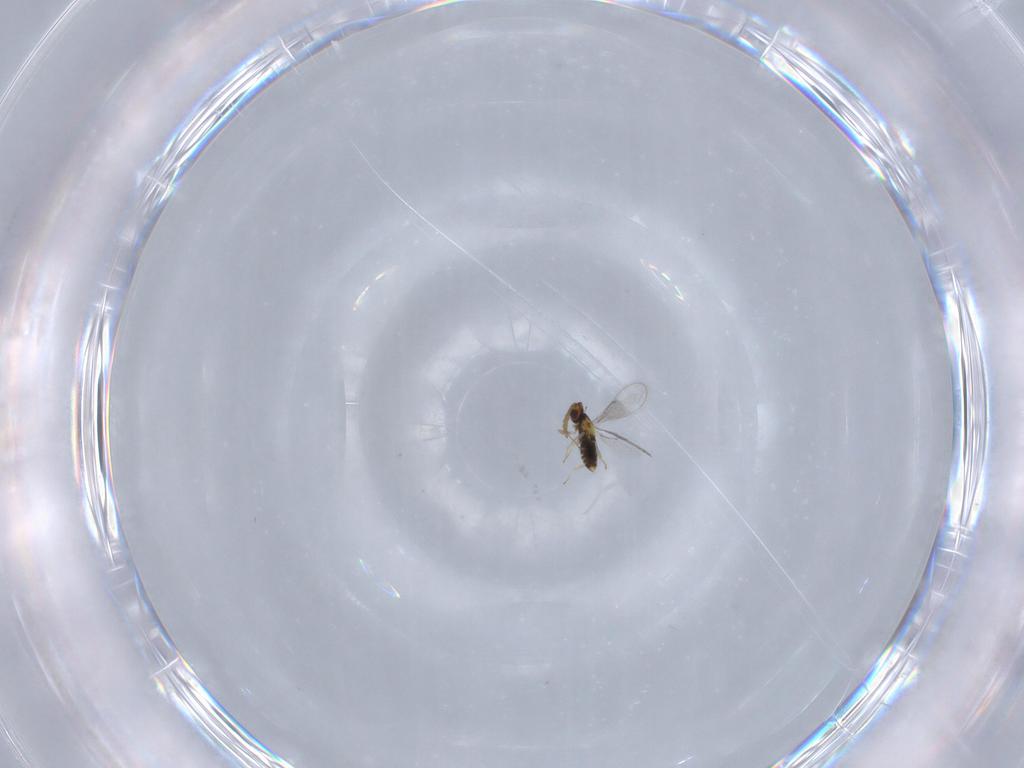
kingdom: Animalia
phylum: Arthropoda
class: Insecta
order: Hymenoptera
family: Aphelinidae
